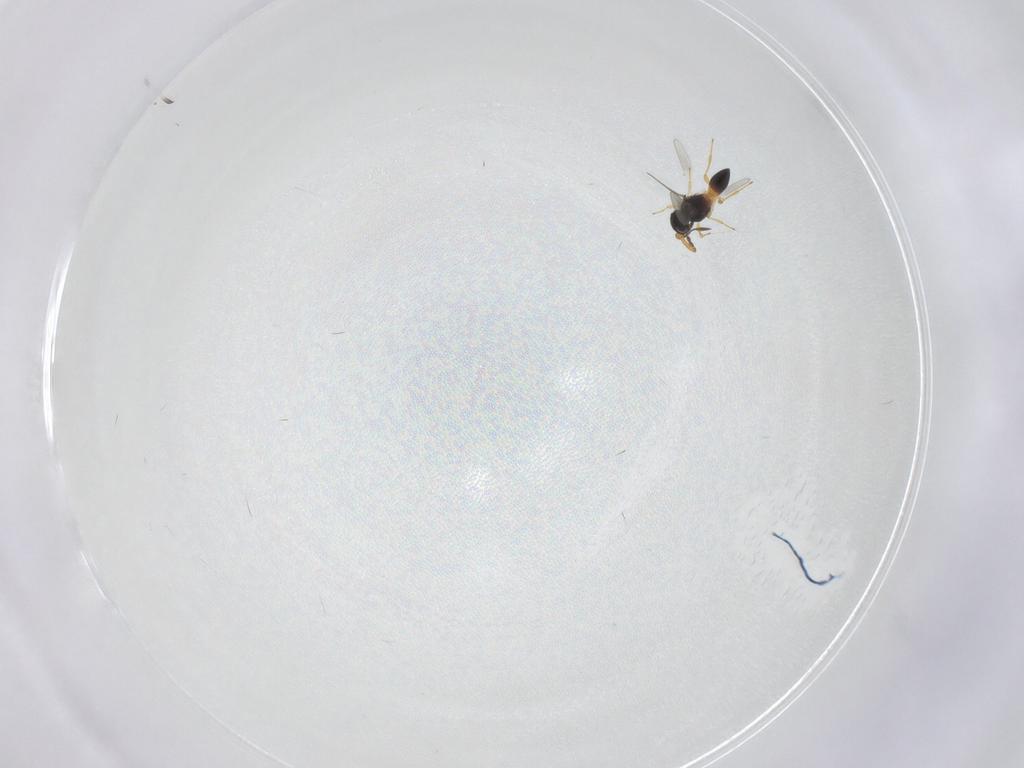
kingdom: Animalia
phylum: Arthropoda
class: Insecta
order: Hymenoptera
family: Platygastridae
